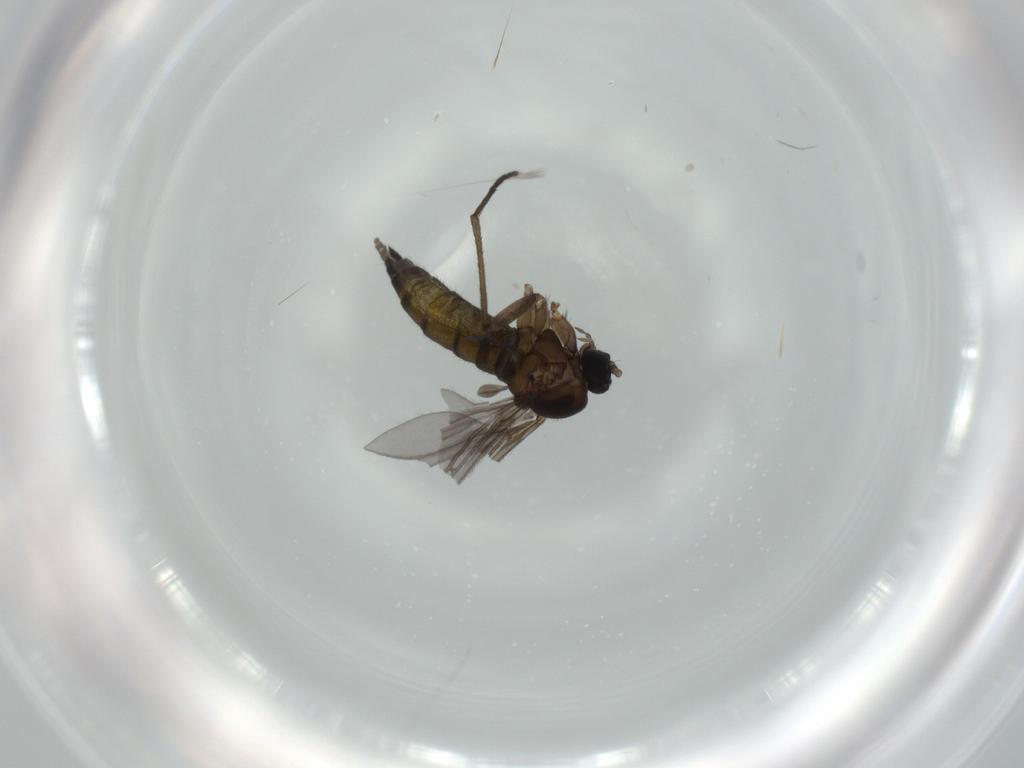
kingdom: Animalia
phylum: Arthropoda
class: Insecta
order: Diptera
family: Sciaridae
